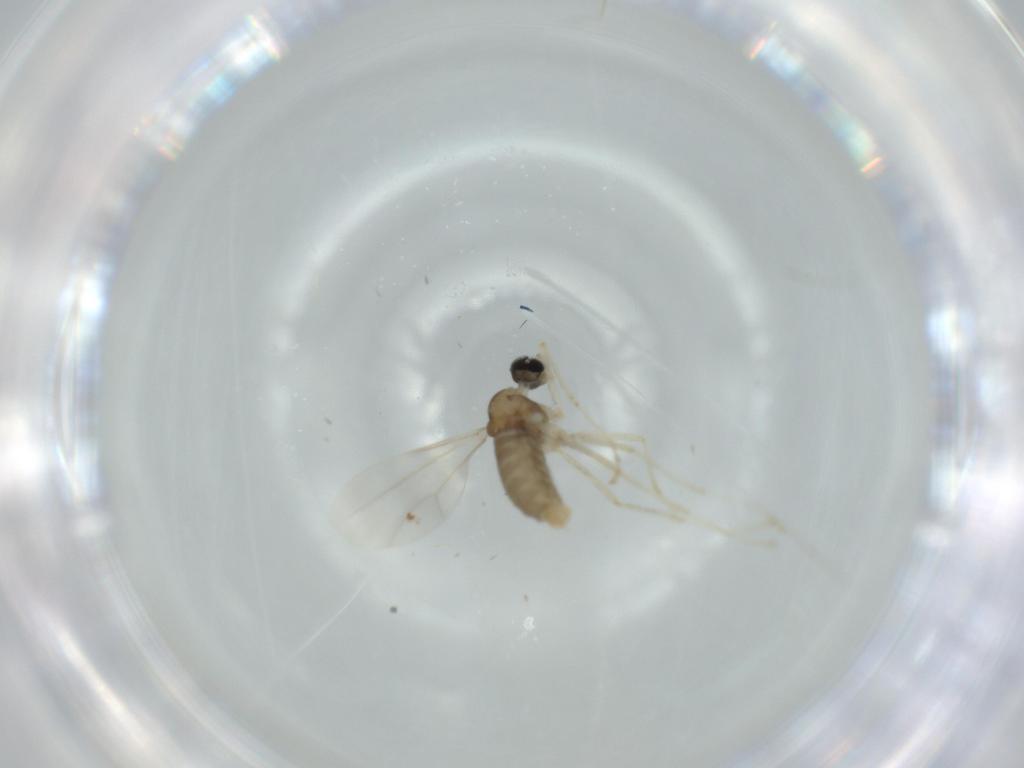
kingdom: Animalia
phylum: Arthropoda
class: Insecta
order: Diptera
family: Cecidomyiidae
